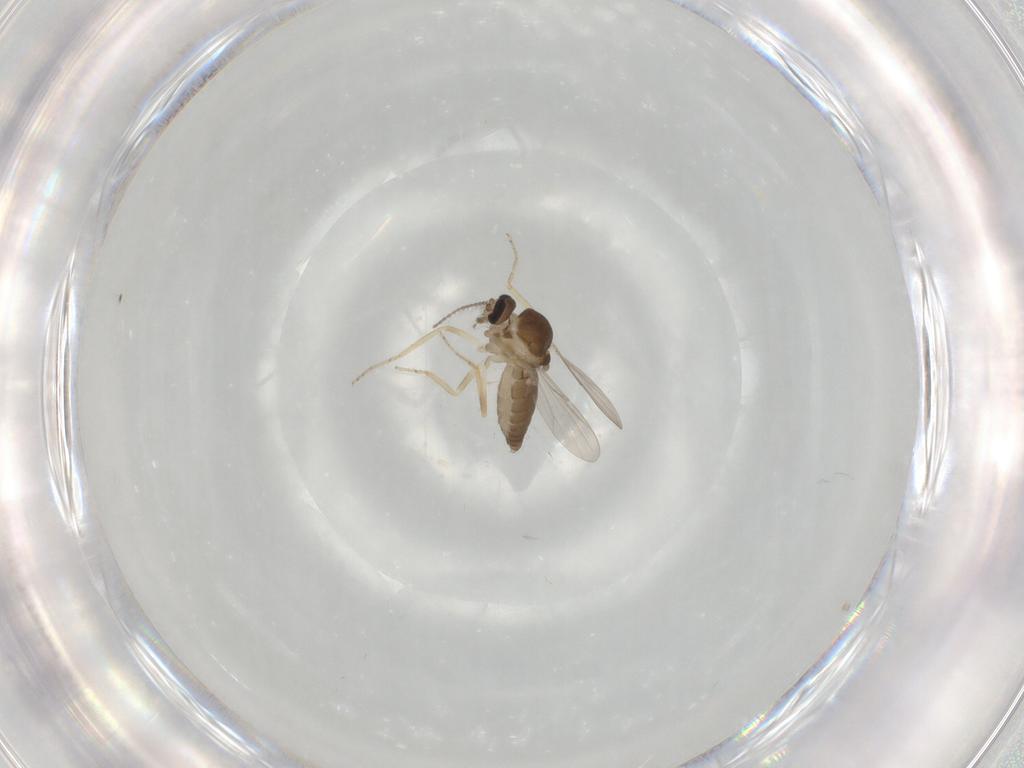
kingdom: Animalia
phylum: Arthropoda
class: Insecta
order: Diptera
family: Ceratopogonidae
